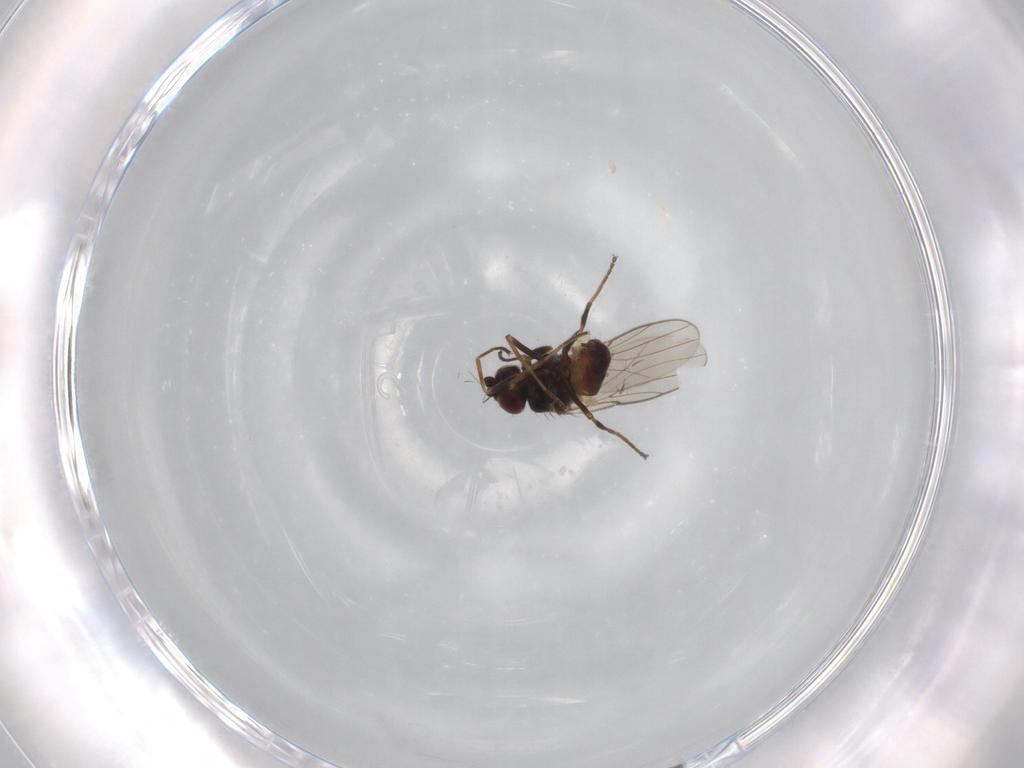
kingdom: Animalia
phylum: Arthropoda
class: Insecta
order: Diptera
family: Chloropidae
